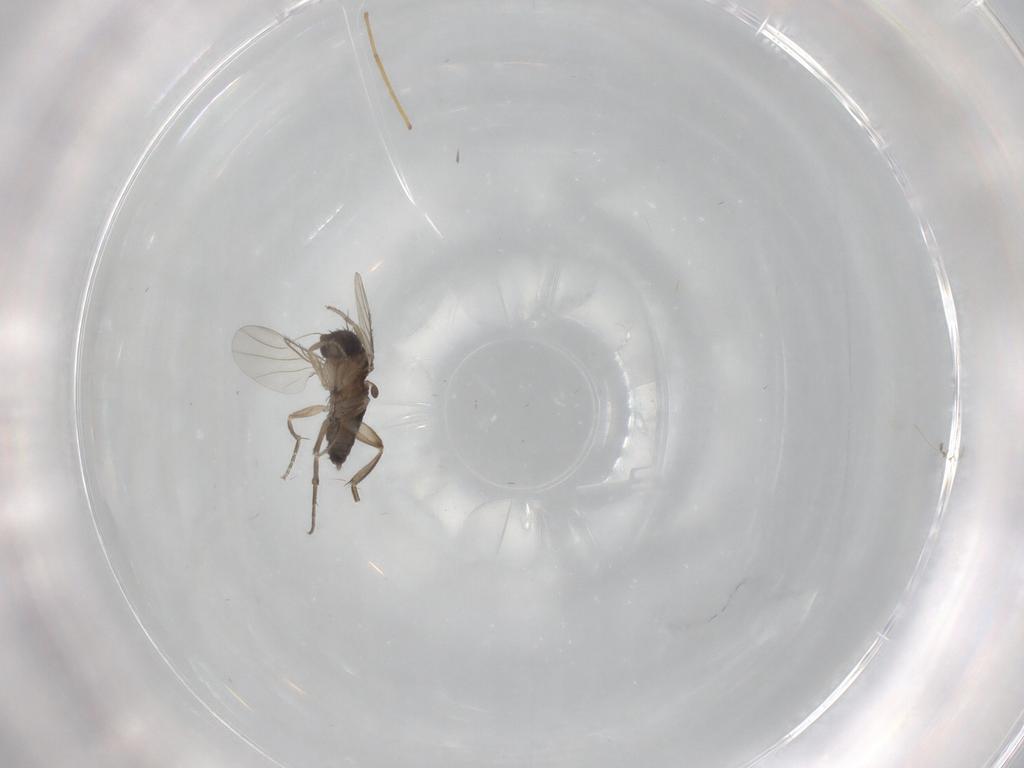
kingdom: Animalia
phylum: Arthropoda
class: Insecta
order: Diptera
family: Phoridae
